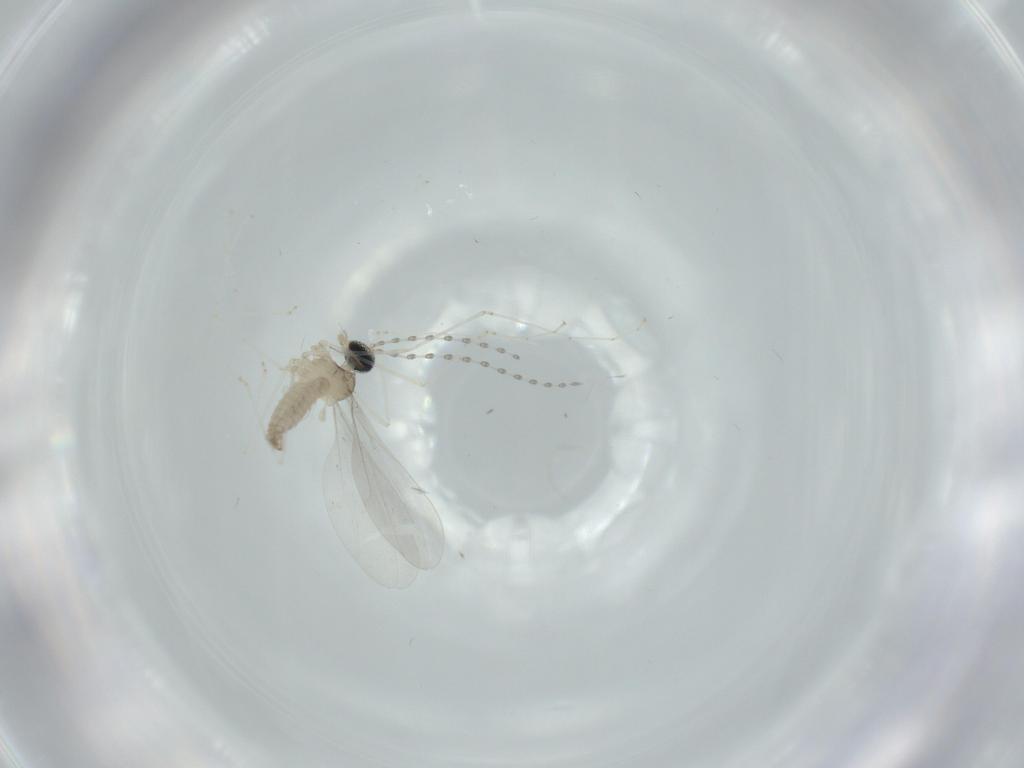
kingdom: Animalia
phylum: Arthropoda
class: Insecta
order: Diptera
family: Cecidomyiidae
